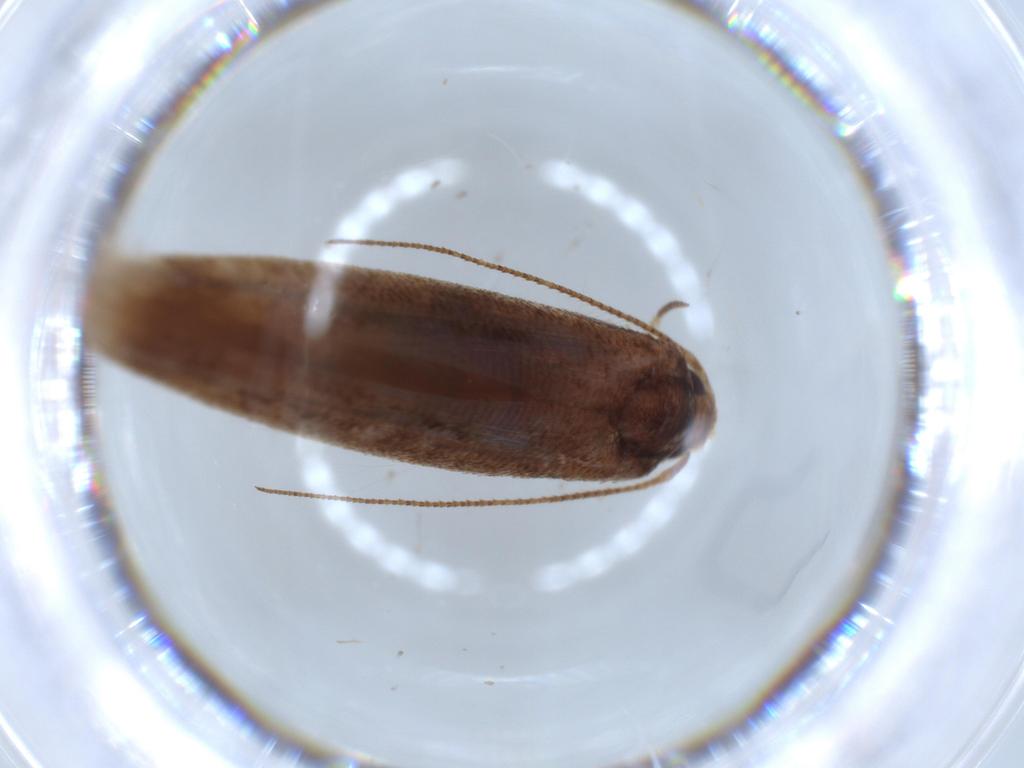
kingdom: Animalia
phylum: Arthropoda
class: Insecta
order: Lepidoptera
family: Stathmopodidae
